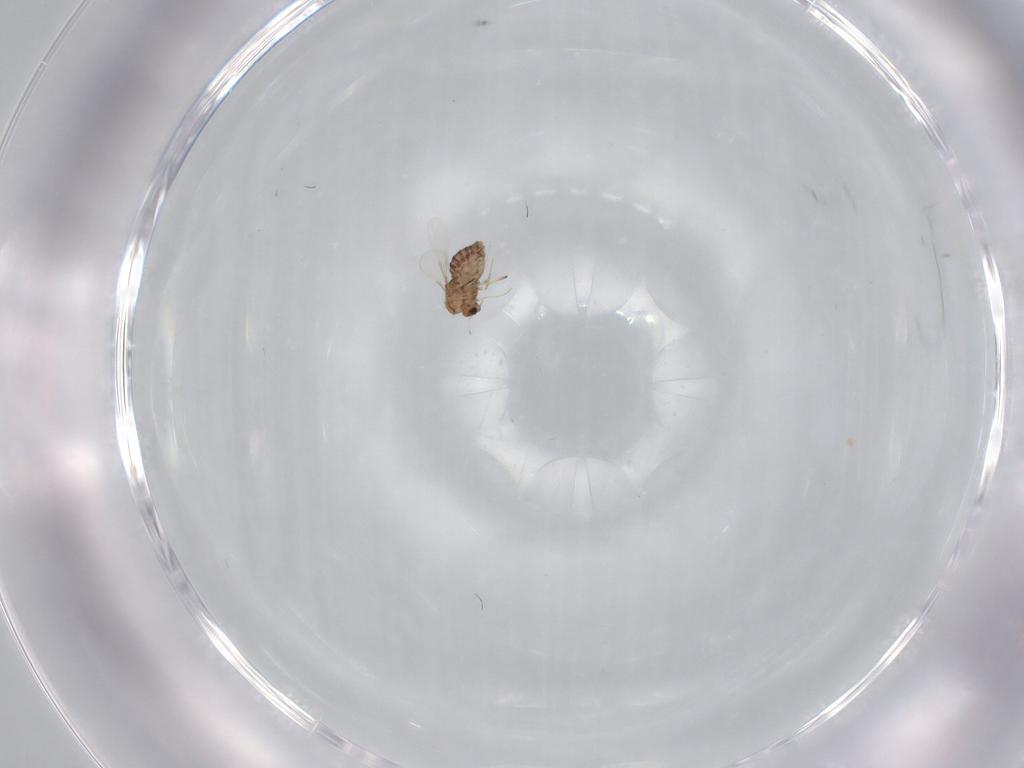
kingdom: Animalia
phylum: Arthropoda
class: Insecta
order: Diptera
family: Chironomidae
